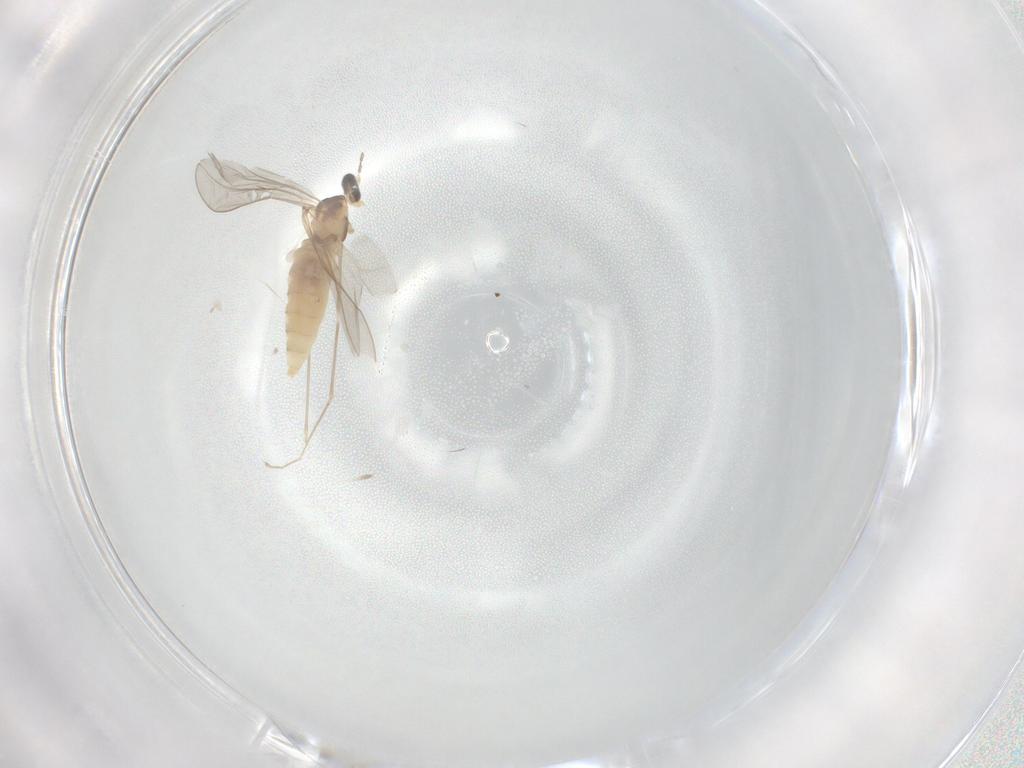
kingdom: Animalia
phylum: Arthropoda
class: Insecta
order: Diptera
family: Cecidomyiidae
